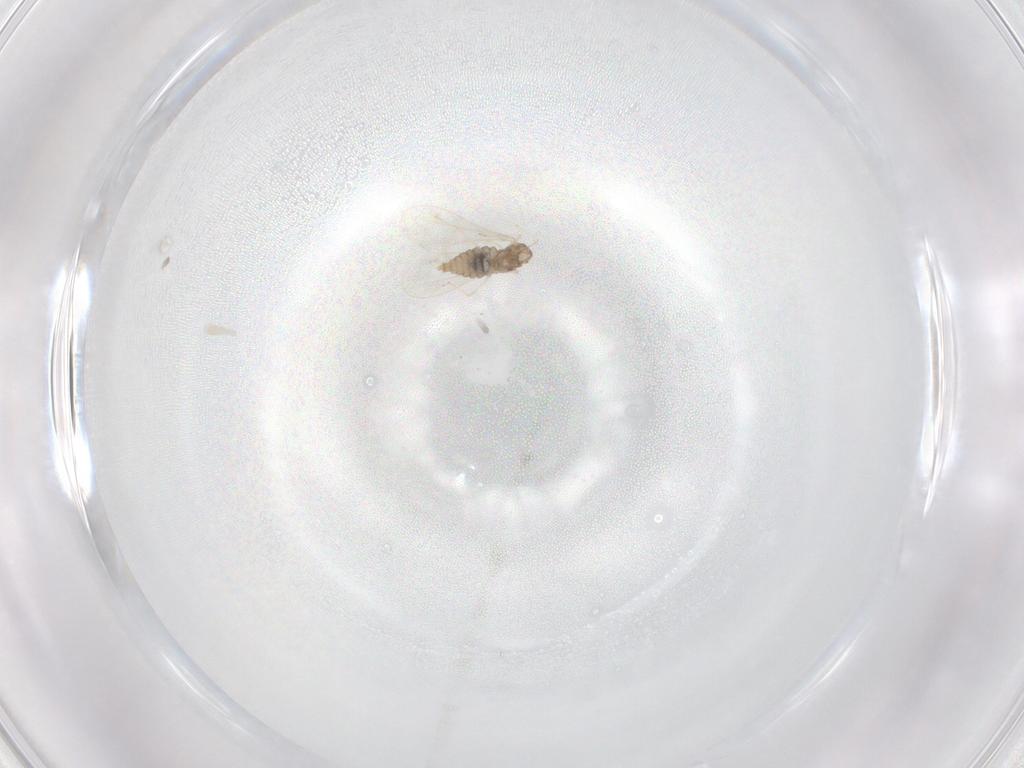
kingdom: Animalia
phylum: Arthropoda
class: Insecta
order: Diptera
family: Cecidomyiidae
